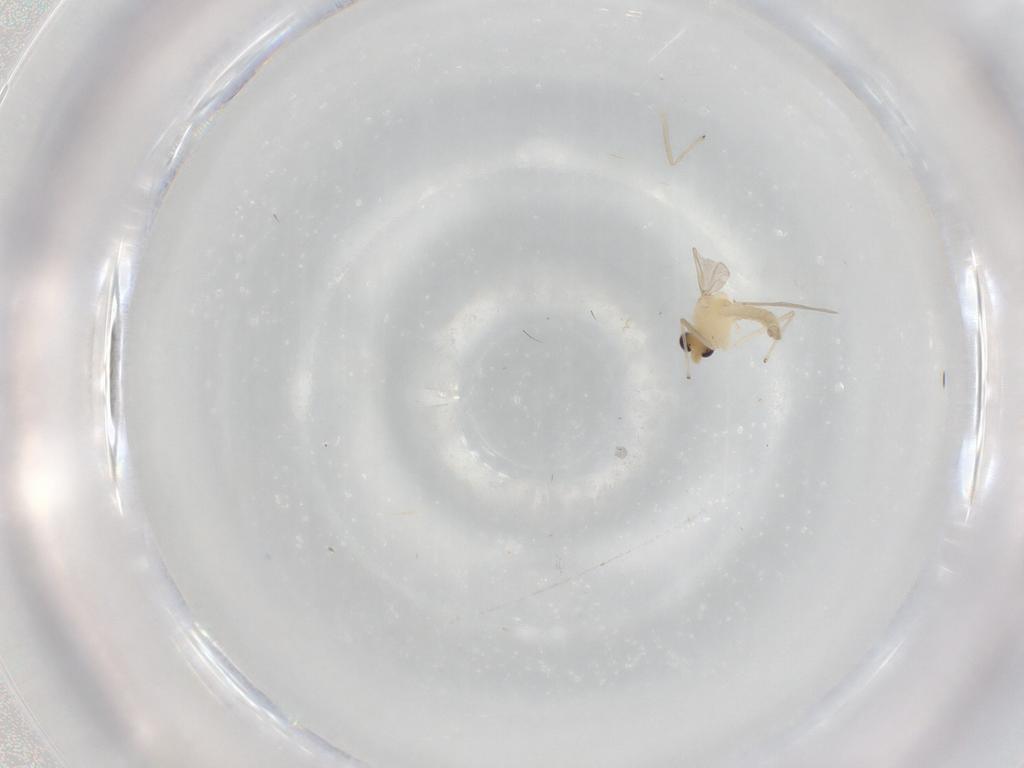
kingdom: Animalia
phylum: Arthropoda
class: Insecta
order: Diptera
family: Chironomidae
